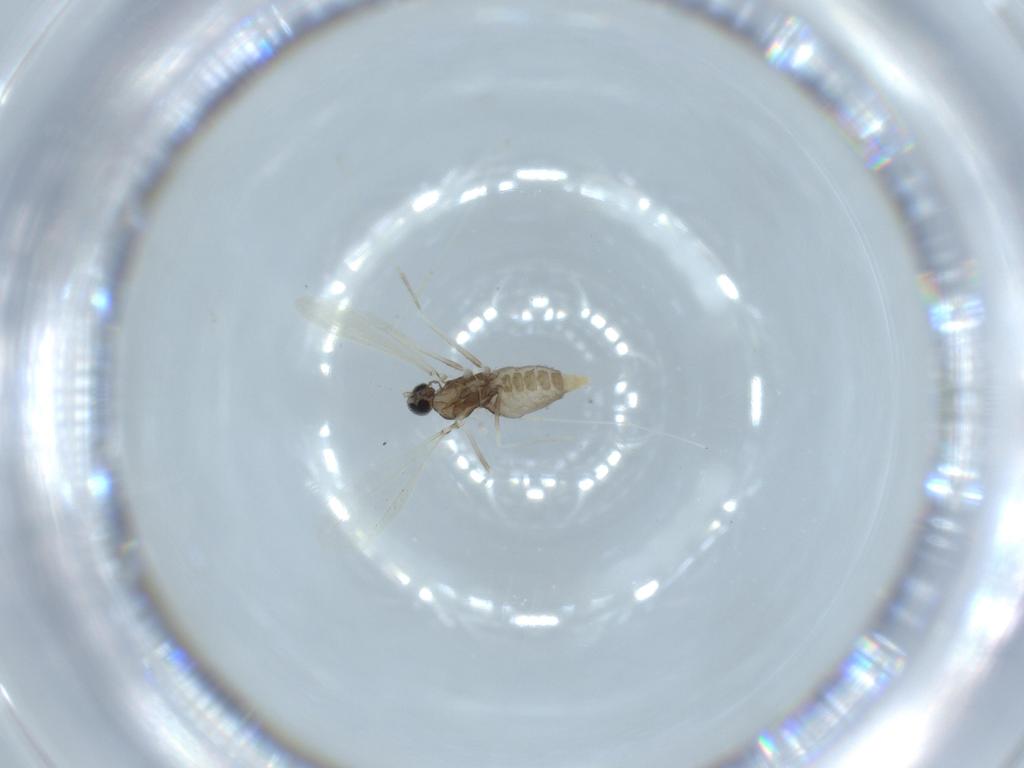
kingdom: Animalia
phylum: Arthropoda
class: Insecta
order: Diptera
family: Cecidomyiidae
